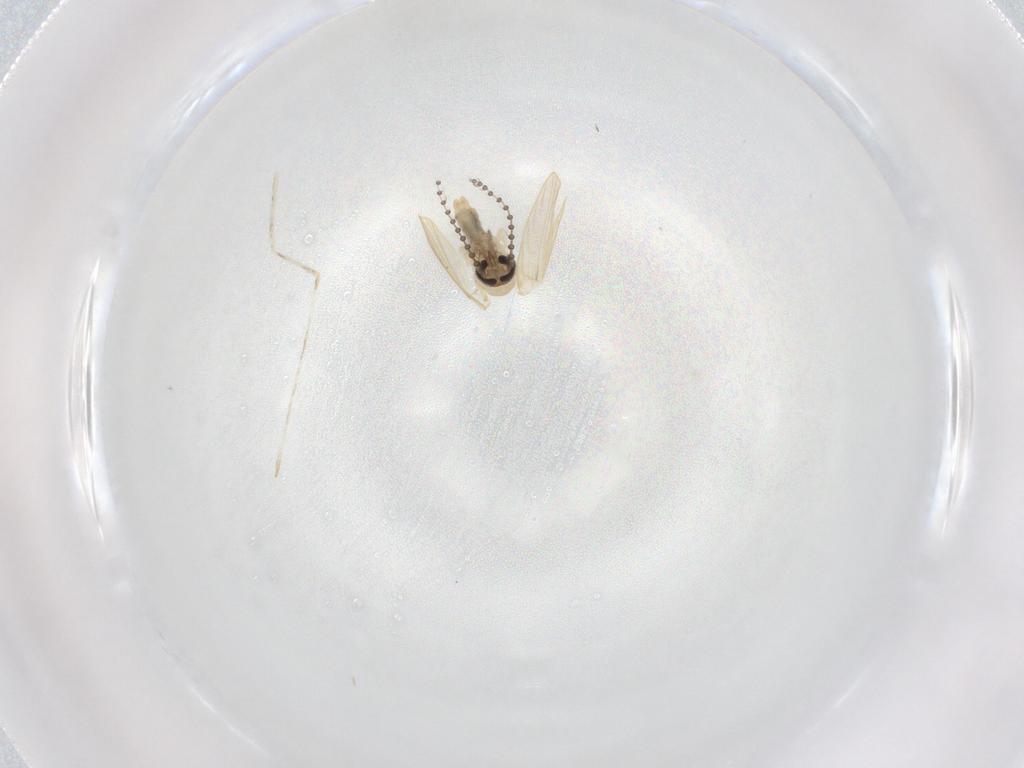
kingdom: Animalia
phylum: Arthropoda
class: Insecta
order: Diptera
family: Psychodidae
